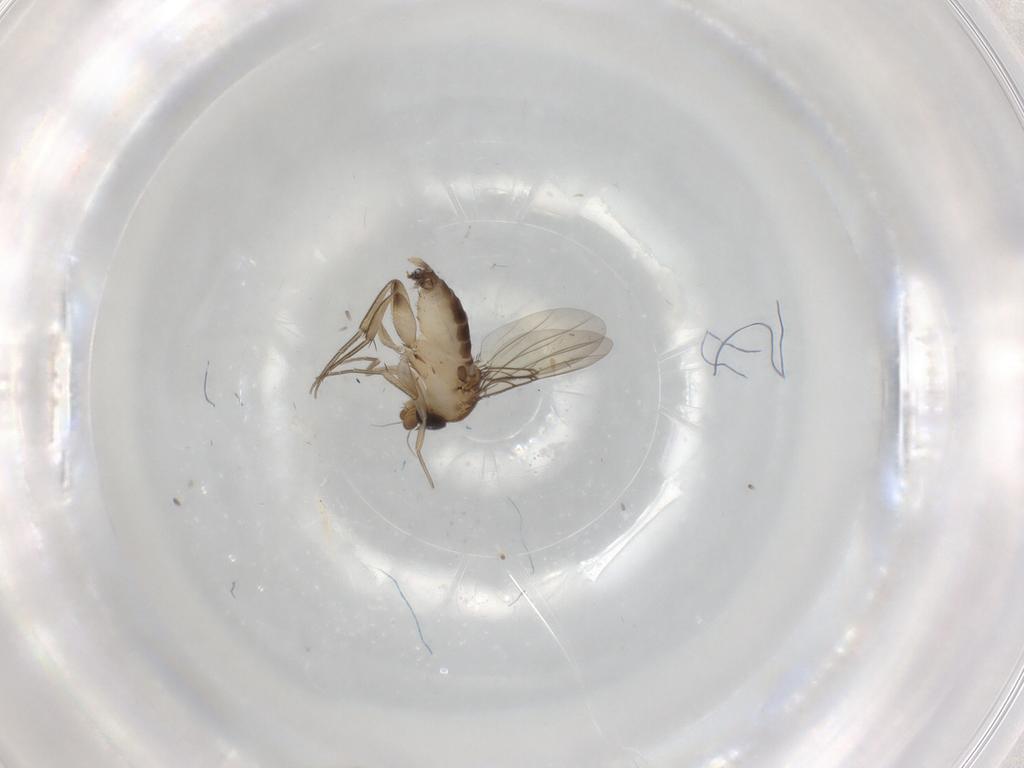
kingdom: Animalia
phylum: Arthropoda
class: Insecta
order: Diptera
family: Phoridae
